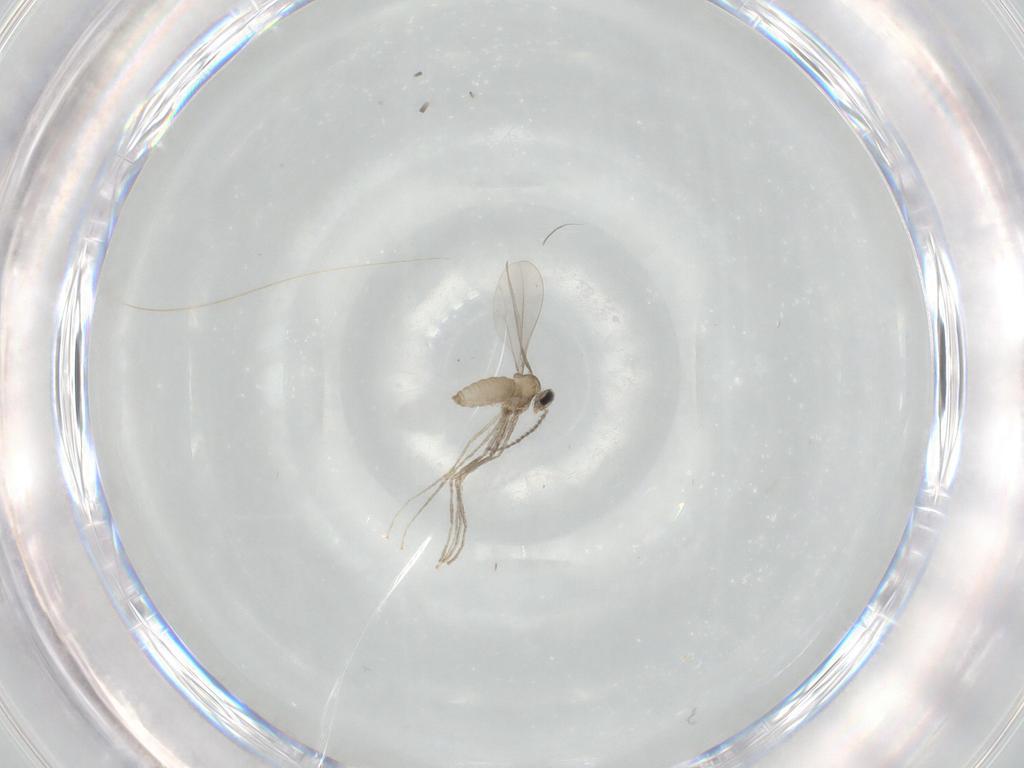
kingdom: Animalia
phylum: Arthropoda
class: Insecta
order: Diptera
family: Cecidomyiidae
